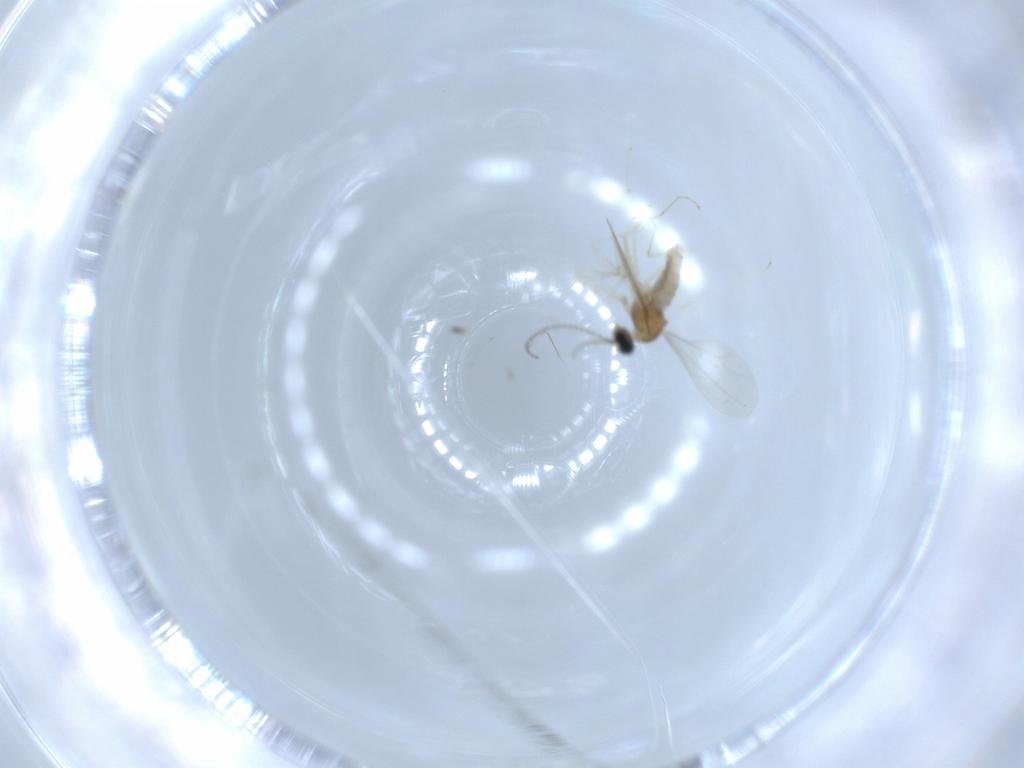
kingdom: Animalia
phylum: Arthropoda
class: Insecta
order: Diptera
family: Cecidomyiidae
